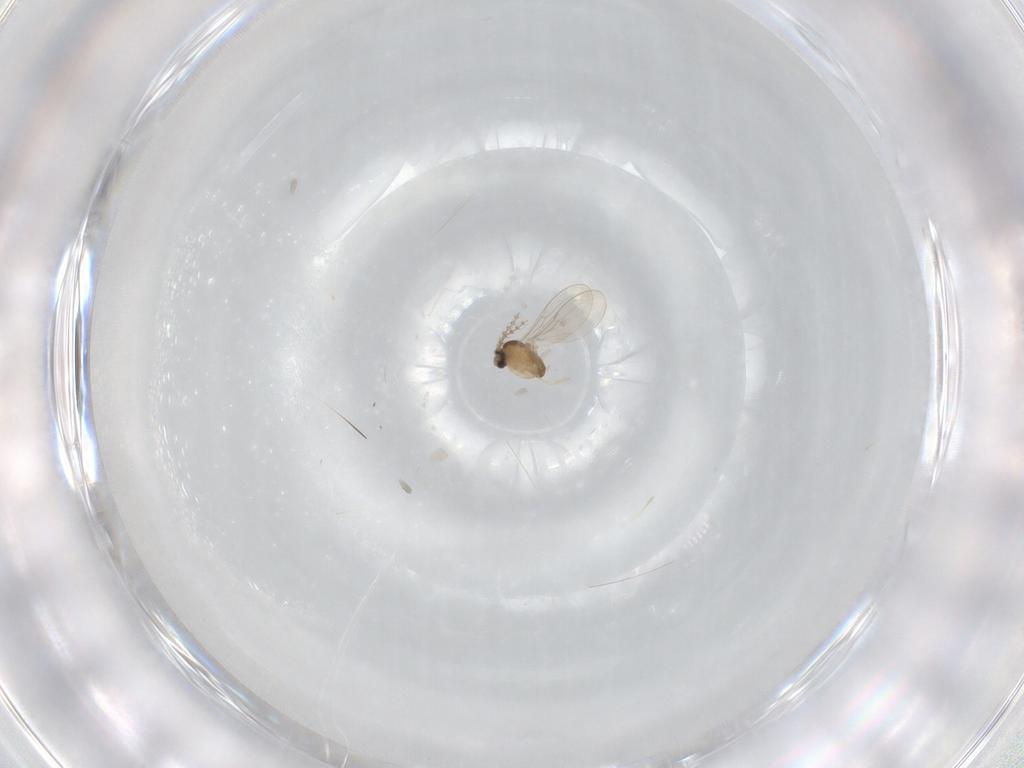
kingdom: Animalia
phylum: Arthropoda
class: Insecta
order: Diptera
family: Cecidomyiidae
